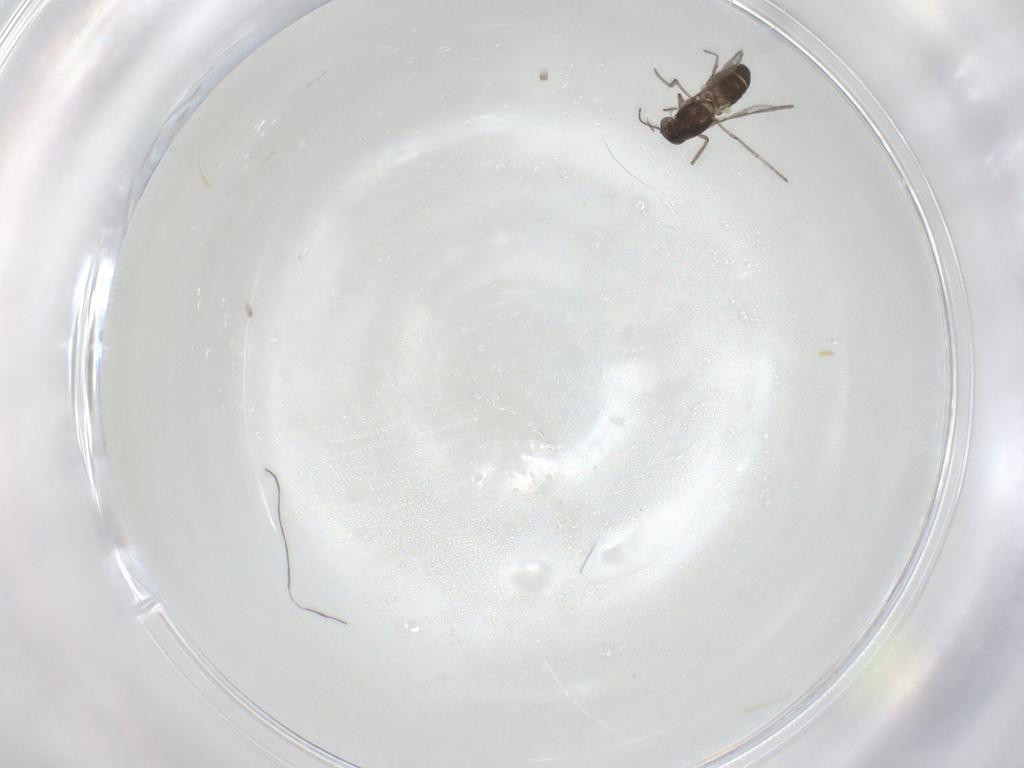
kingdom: Animalia
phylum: Arthropoda
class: Insecta
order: Diptera
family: Ceratopogonidae
